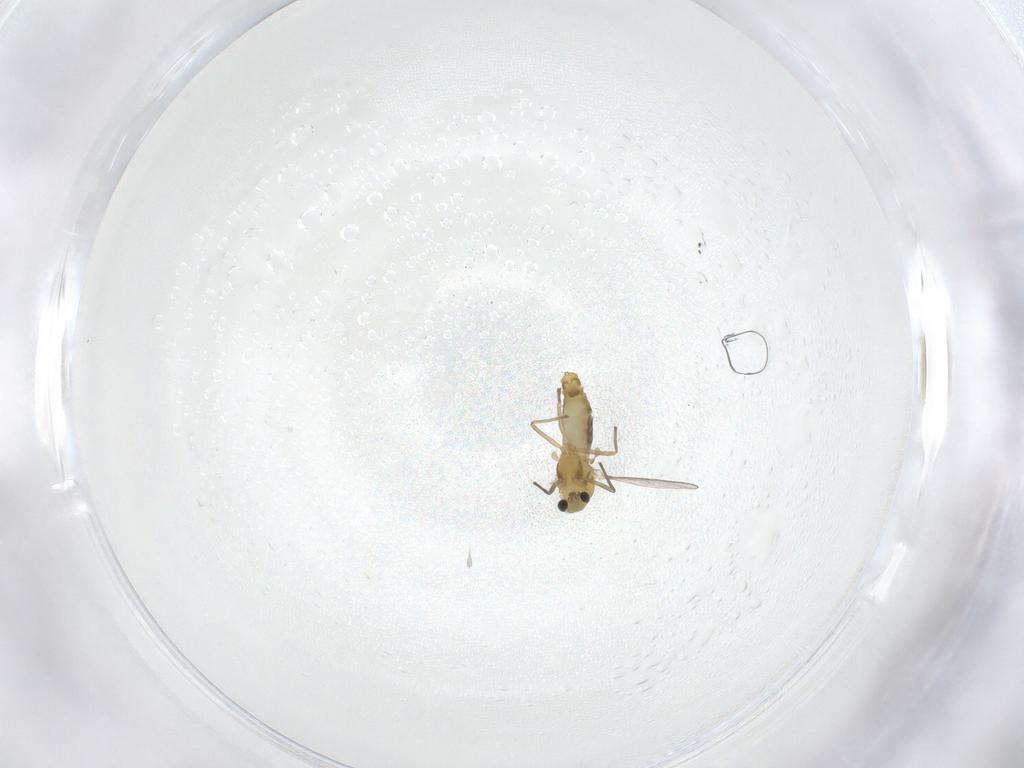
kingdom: Animalia
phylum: Arthropoda
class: Insecta
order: Diptera
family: Chironomidae
